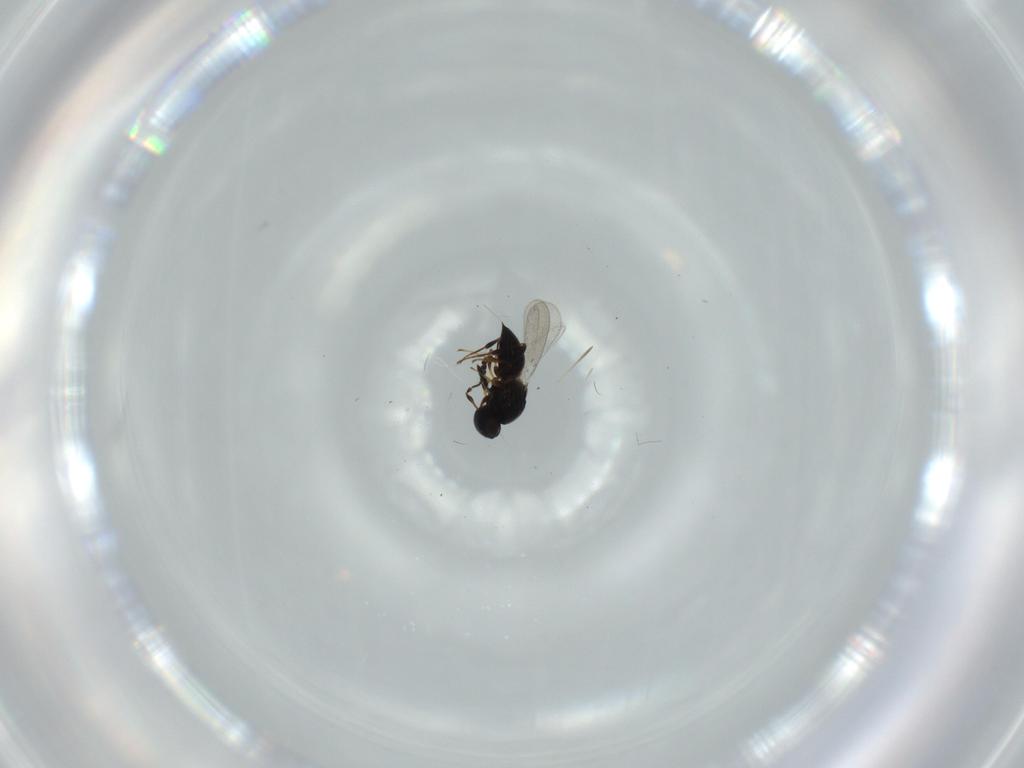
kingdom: Animalia
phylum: Arthropoda
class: Insecta
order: Hymenoptera
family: Platygastridae
